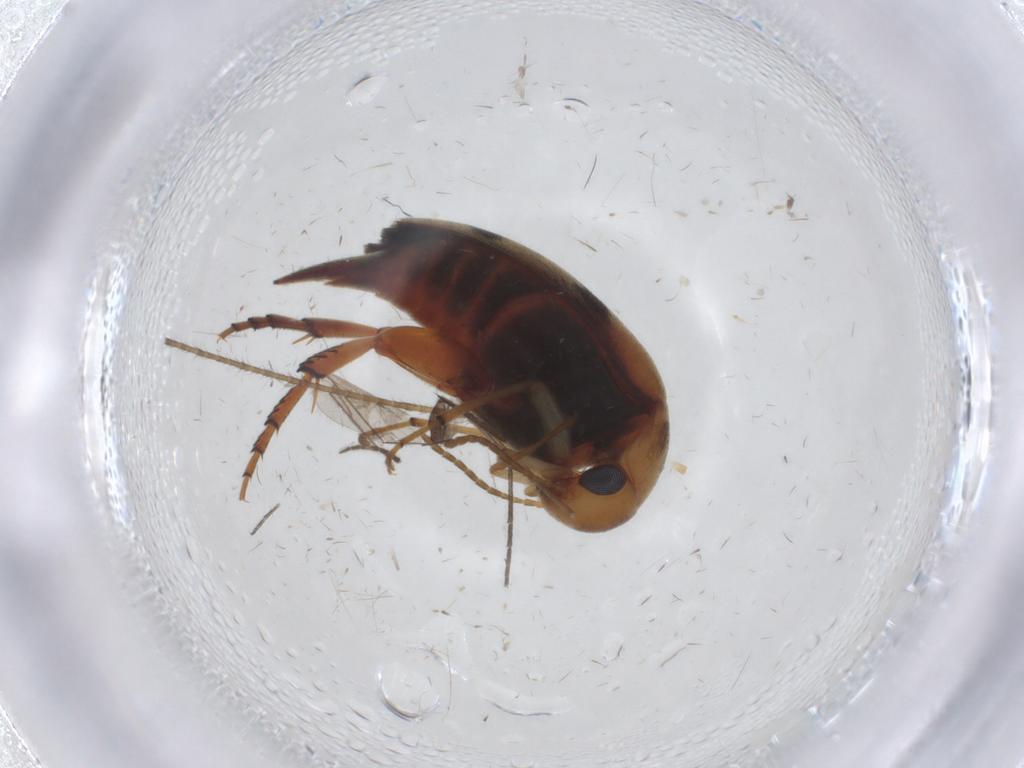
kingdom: Animalia
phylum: Arthropoda
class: Insecta
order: Coleoptera
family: Mordellidae
